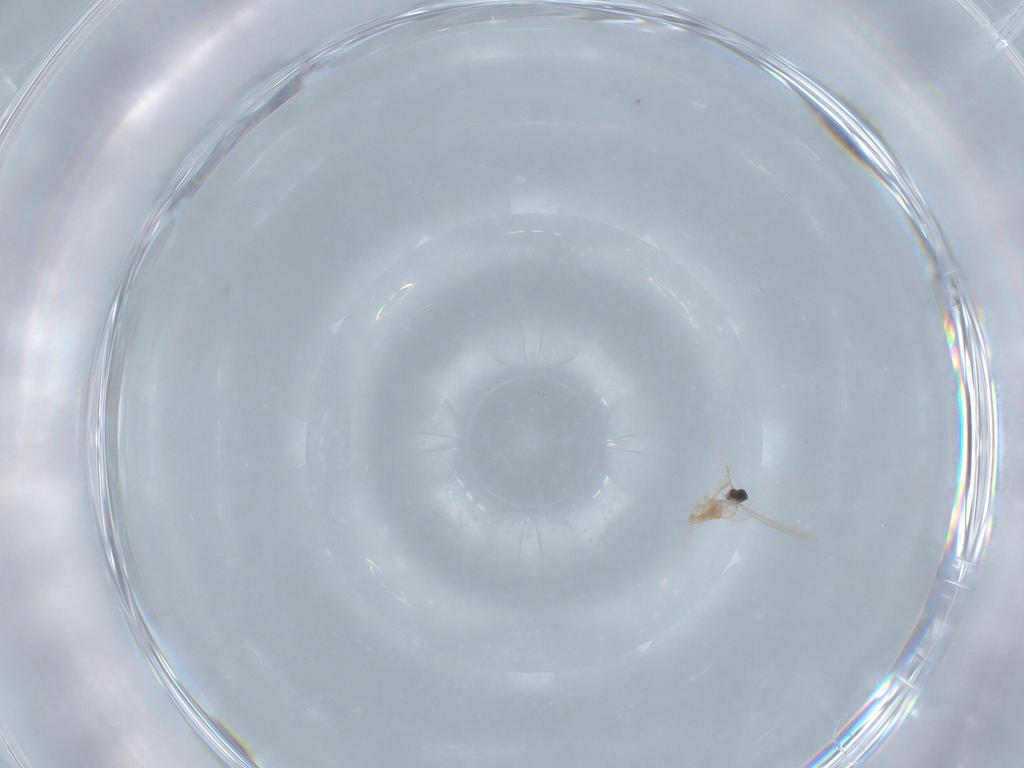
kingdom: Animalia
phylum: Arthropoda
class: Insecta
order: Diptera
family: Cecidomyiidae
